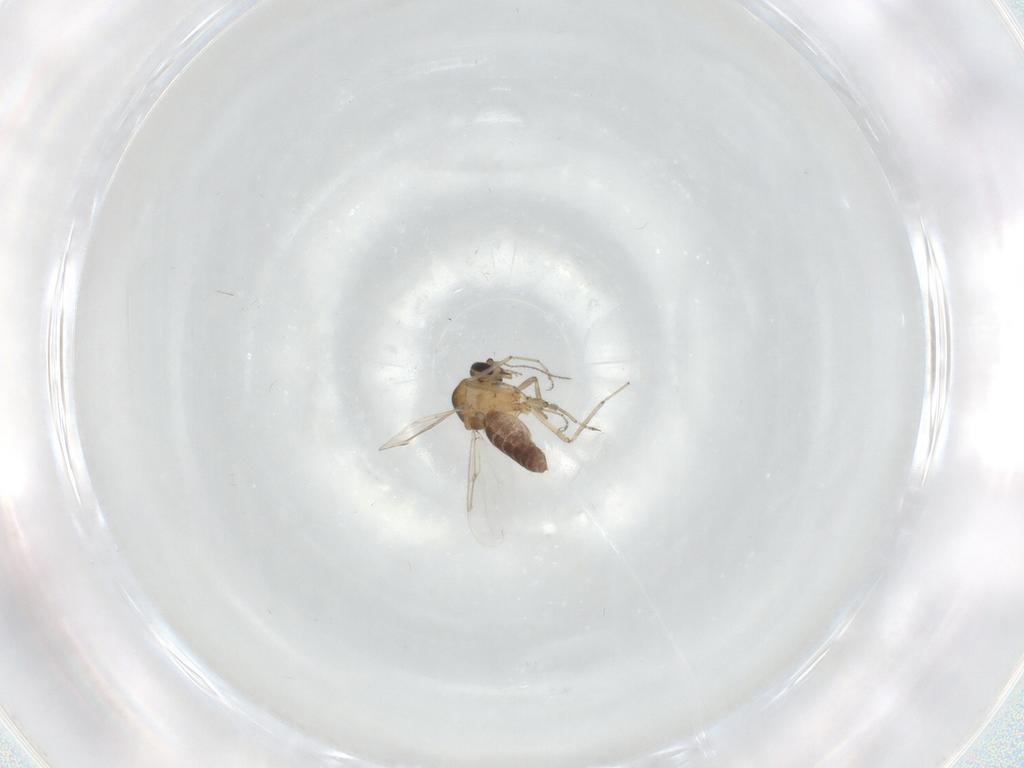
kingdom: Animalia
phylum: Arthropoda
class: Insecta
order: Diptera
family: Ceratopogonidae
